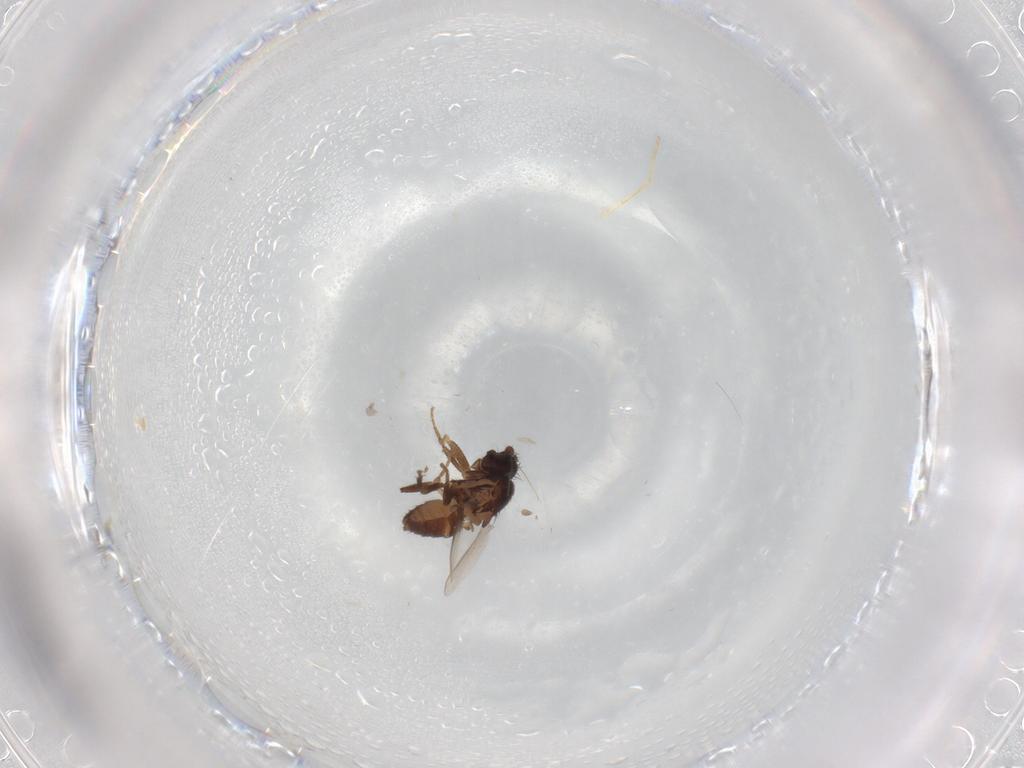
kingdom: Animalia
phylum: Arthropoda
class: Insecta
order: Diptera
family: Sphaeroceridae
